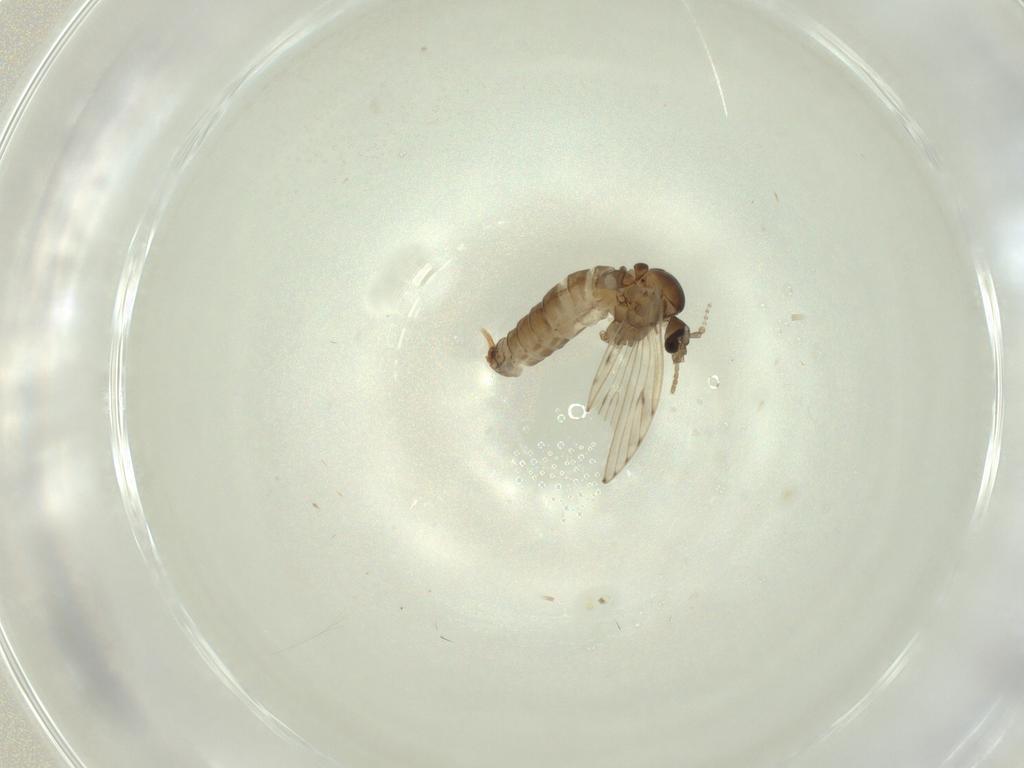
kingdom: Animalia
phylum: Arthropoda
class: Insecta
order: Diptera
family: Psychodidae
